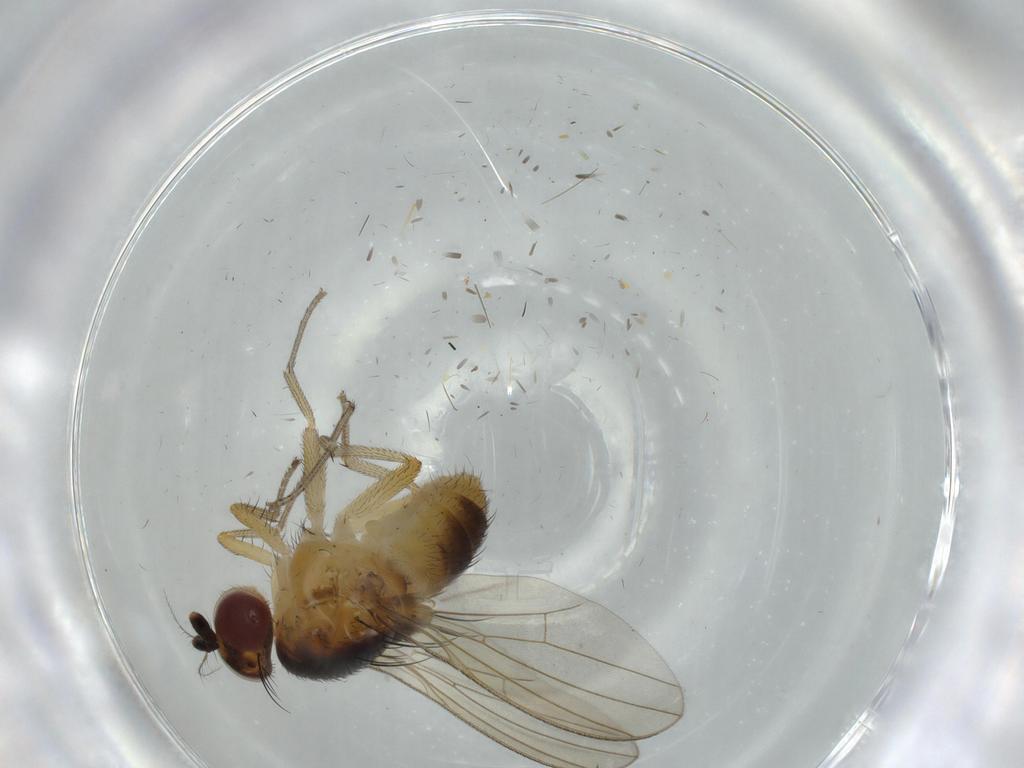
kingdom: Animalia
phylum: Arthropoda
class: Insecta
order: Diptera
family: Lauxaniidae
